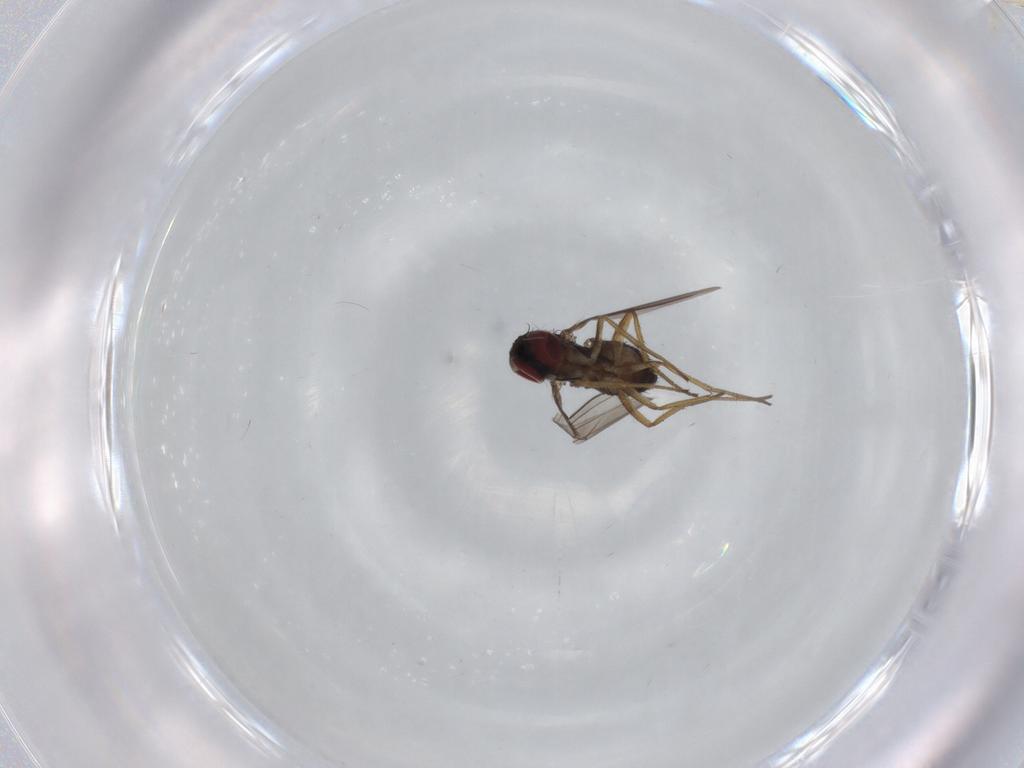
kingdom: Animalia
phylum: Arthropoda
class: Insecta
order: Diptera
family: Dolichopodidae
